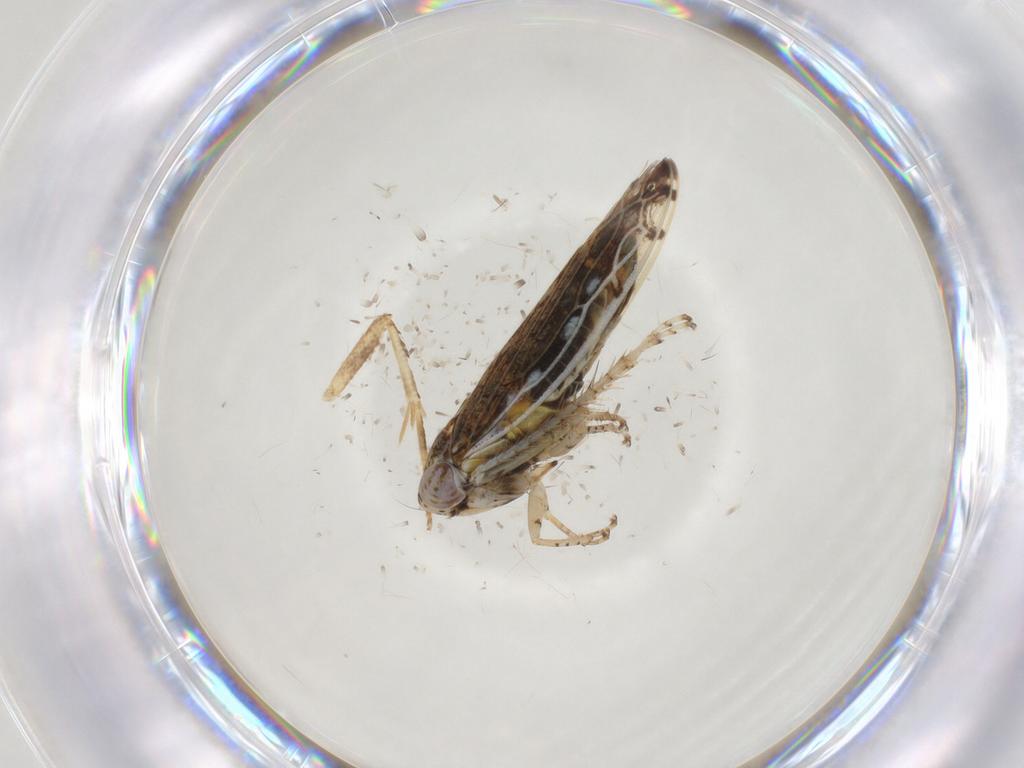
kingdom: Animalia
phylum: Arthropoda
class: Insecta
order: Hemiptera
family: Cicadellidae
